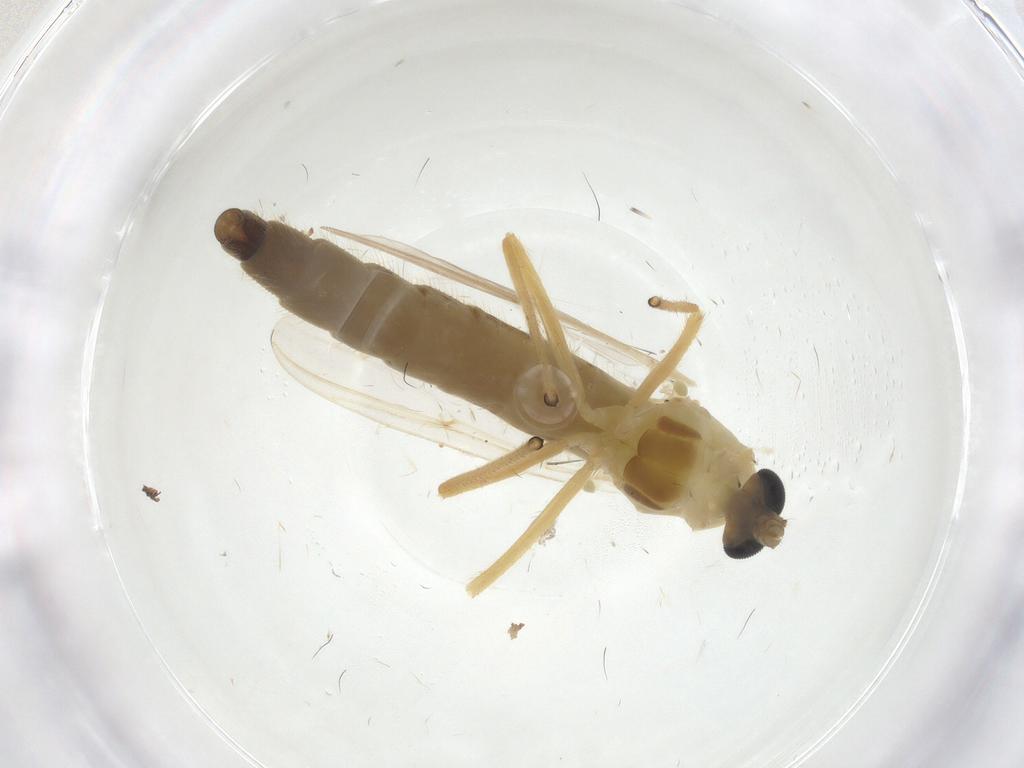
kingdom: Animalia
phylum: Arthropoda
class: Insecta
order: Diptera
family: Chironomidae
